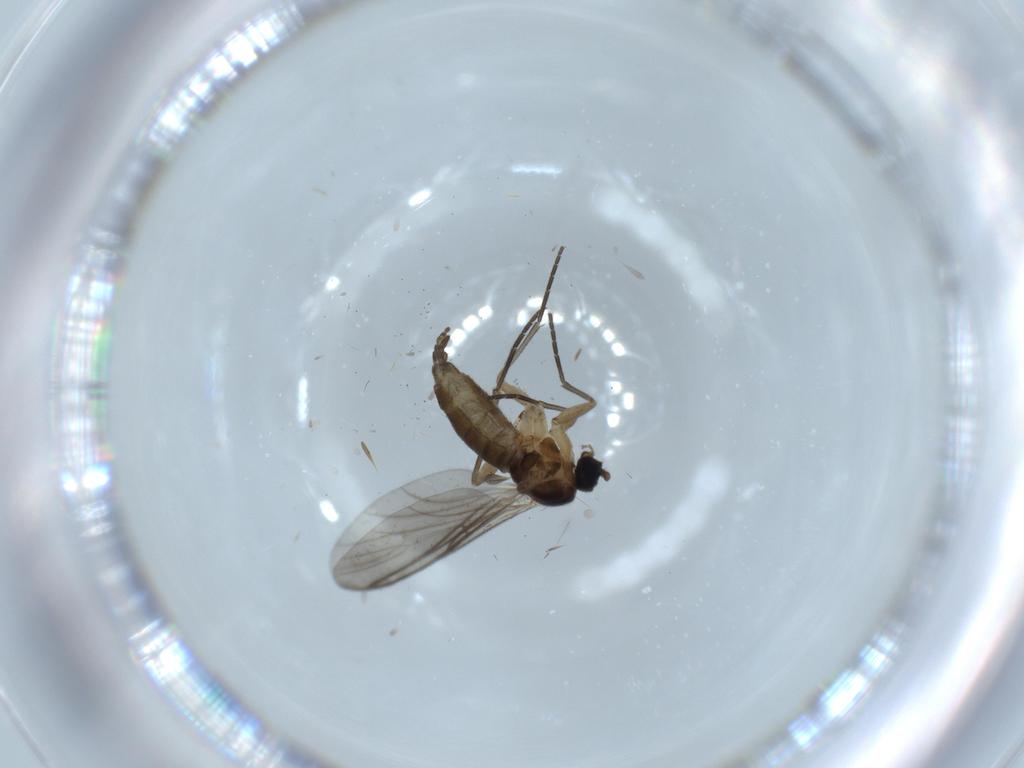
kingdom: Animalia
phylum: Arthropoda
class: Insecta
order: Diptera
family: Sciaridae
